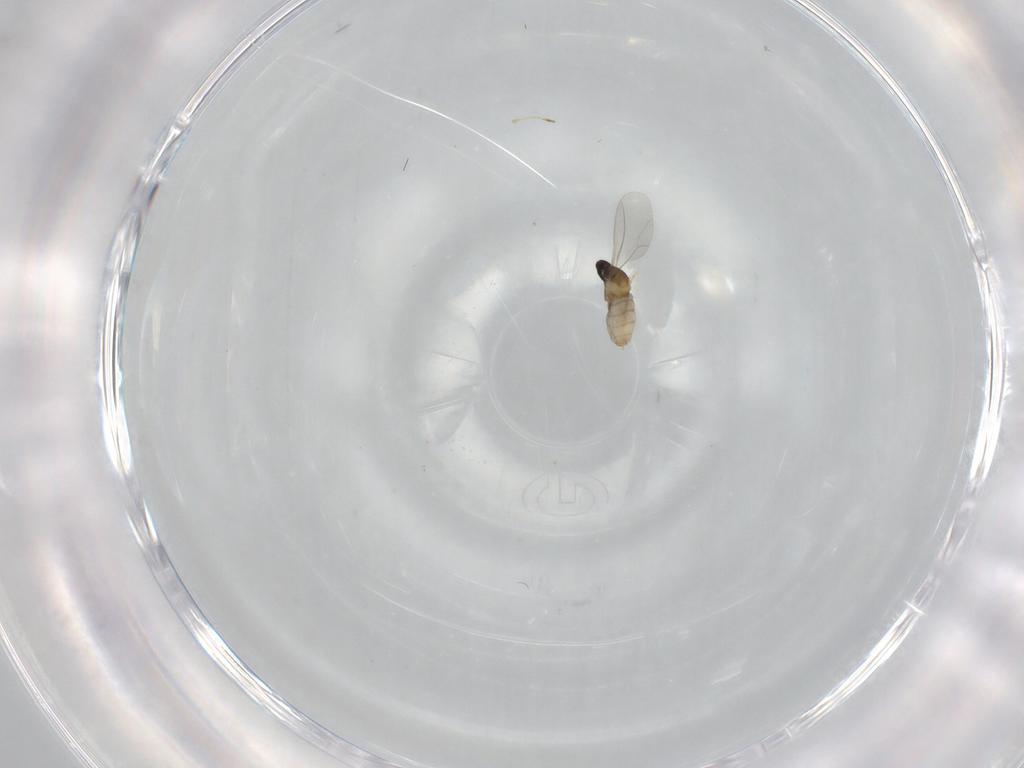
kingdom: Animalia
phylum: Arthropoda
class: Insecta
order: Diptera
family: Cecidomyiidae
